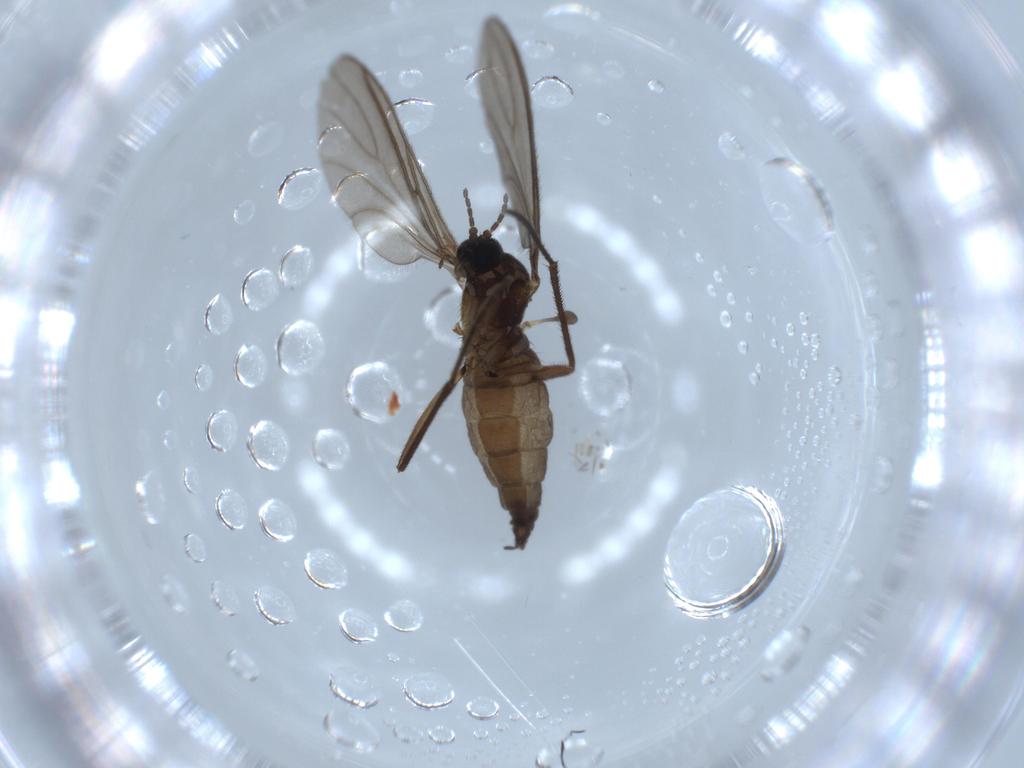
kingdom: Animalia
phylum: Arthropoda
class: Insecta
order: Diptera
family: Sciaridae
